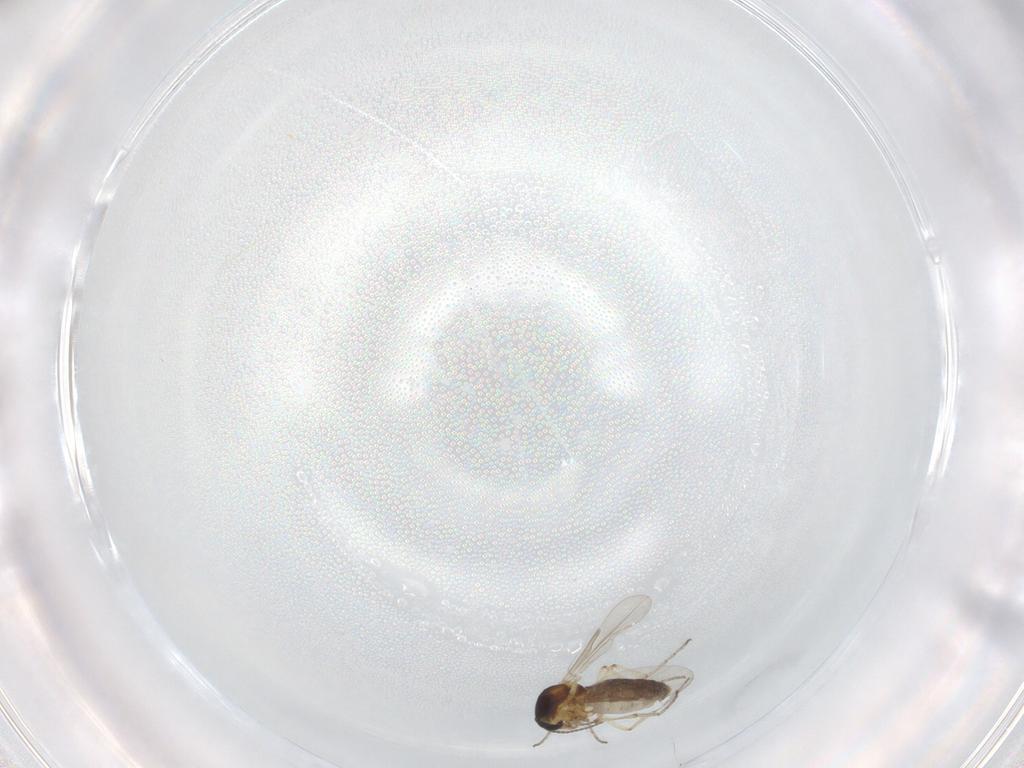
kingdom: Animalia
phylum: Arthropoda
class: Insecta
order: Diptera
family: Ceratopogonidae
